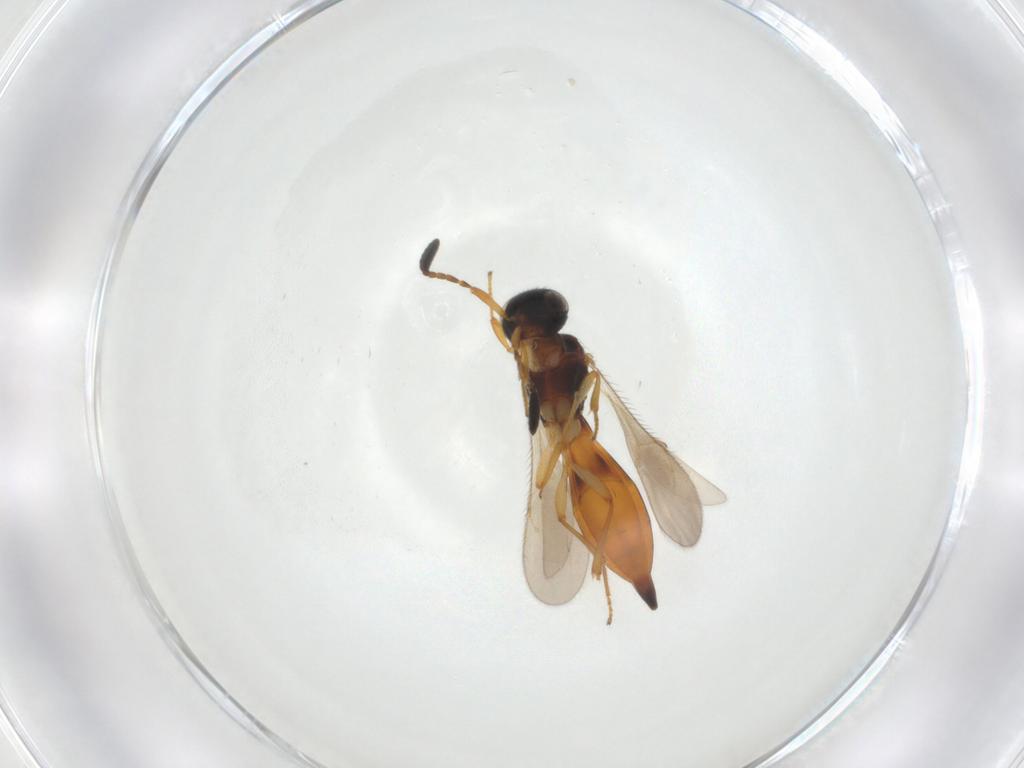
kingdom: Animalia
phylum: Arthropoda
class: Insecta
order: Hymenoptera
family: Scelionidae
